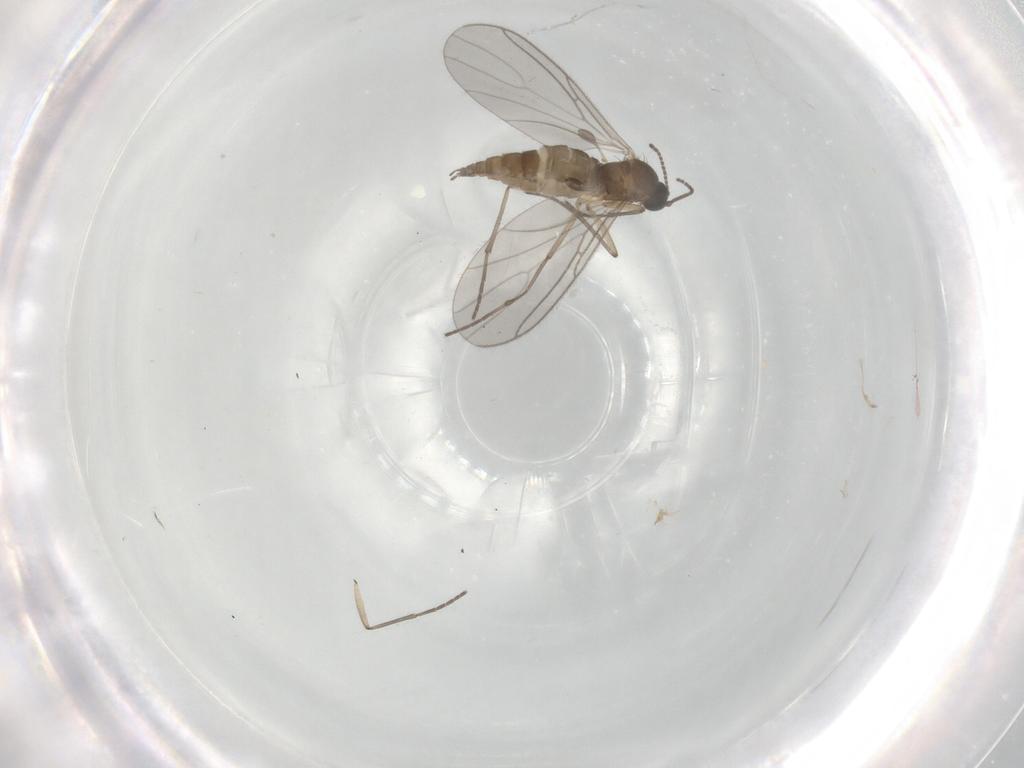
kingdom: Animalia
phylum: Arthropoda
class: Insecta
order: Diptera
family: Sciaridae
